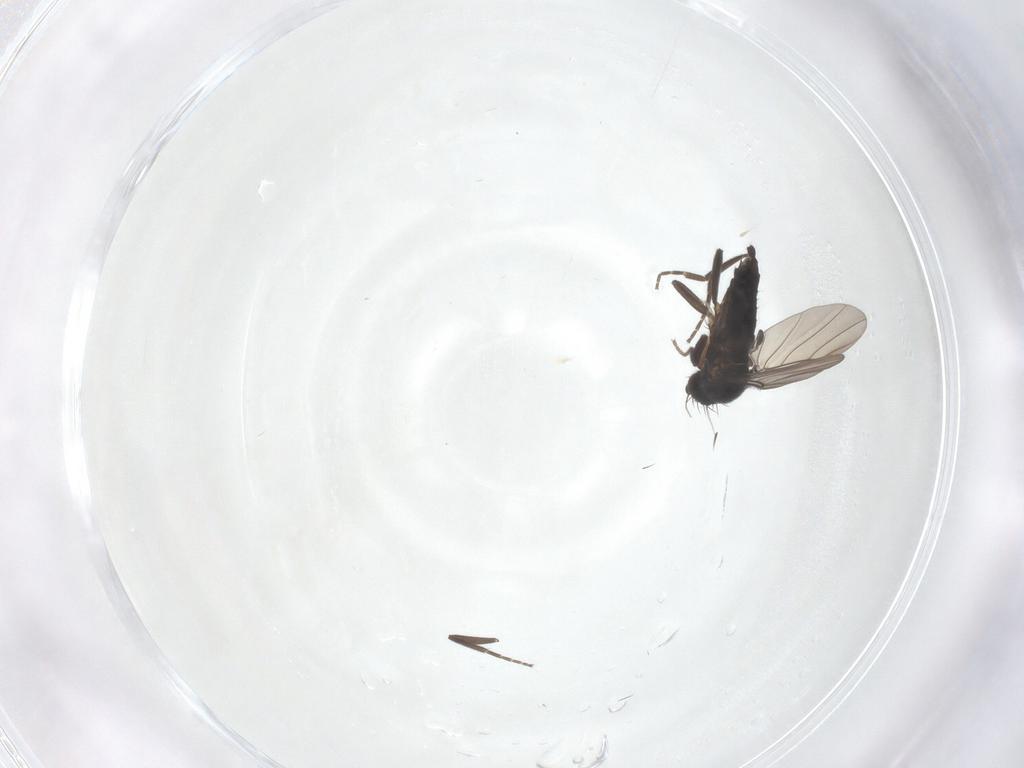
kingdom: Animalia
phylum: Arthropoda
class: Insecta
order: Diptera
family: Phoridae
